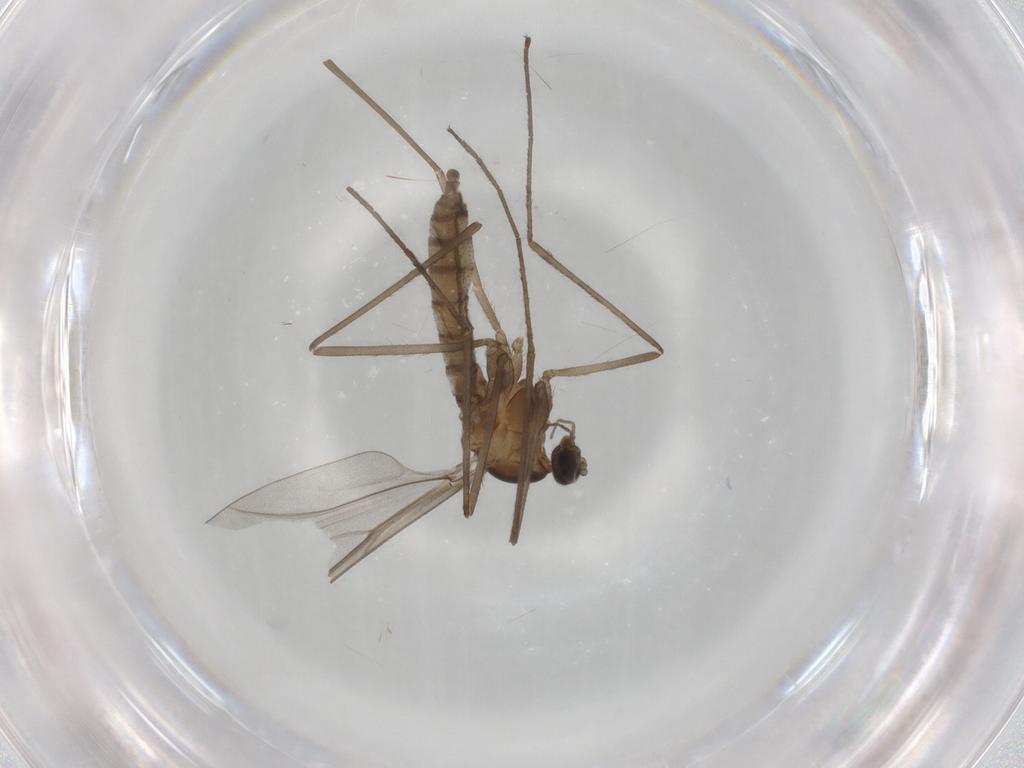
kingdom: Animalia
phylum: Arthropoda
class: Insecta
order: Diptera
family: Cecidomyiidae
